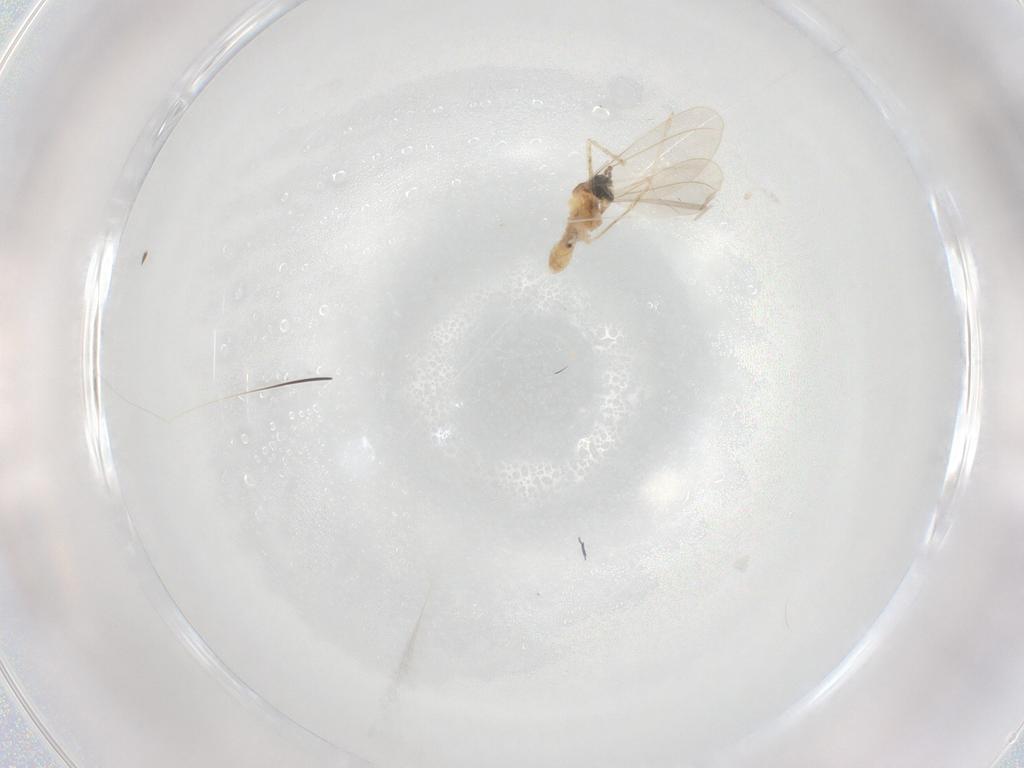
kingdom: Animalia
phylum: Arthropoda
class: Insecta
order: Diptera
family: Cecidomyiidae
